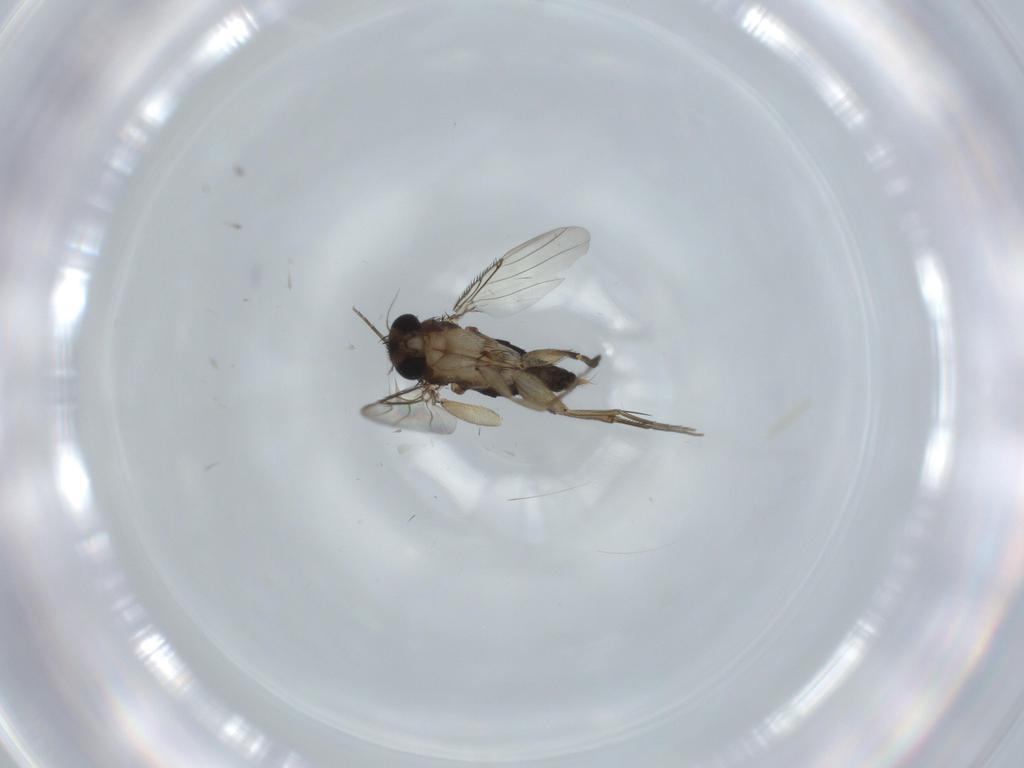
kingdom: Animalia
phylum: Arthropoda
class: Insecta
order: Diptera
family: Phoridae
